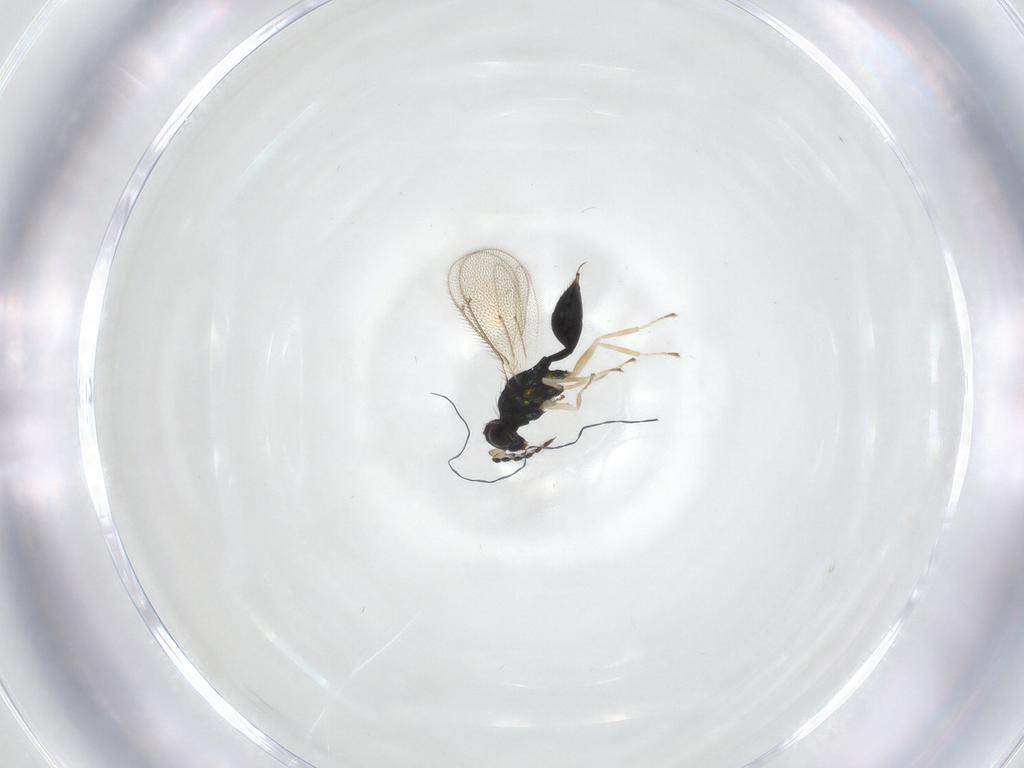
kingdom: Animalia
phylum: Arthropoda
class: Insecta
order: Hymenoptera
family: Eulophidae
